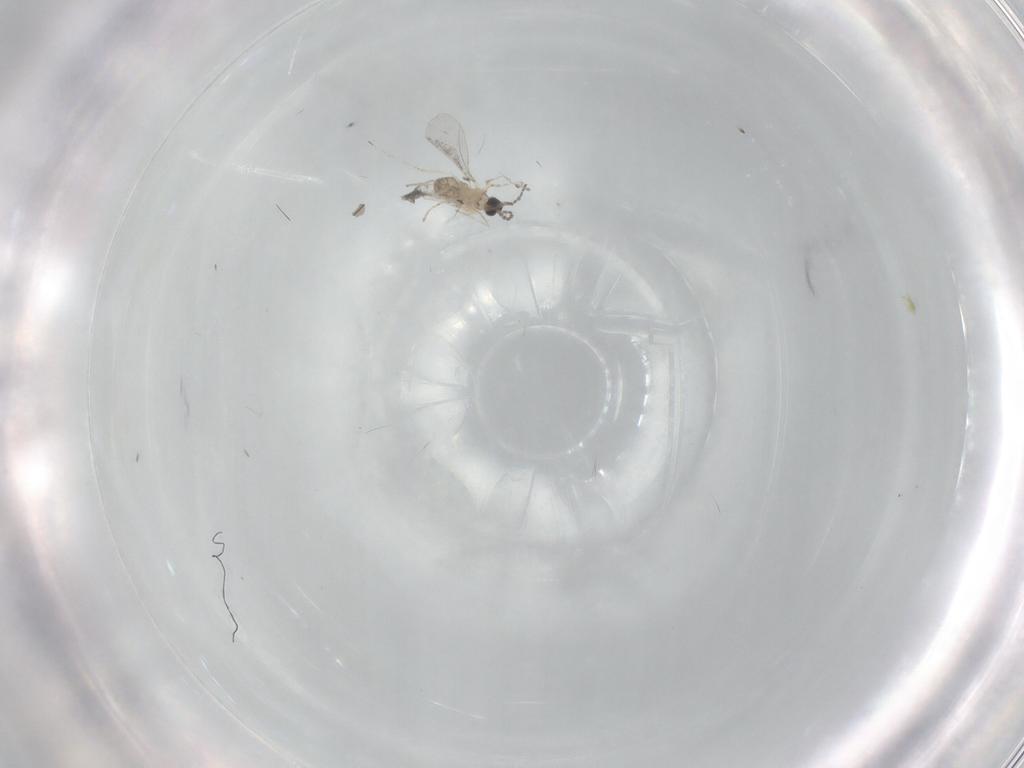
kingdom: Animalia
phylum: Arthropoda
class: Insecta
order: Diptera
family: Cecidomyiidae
